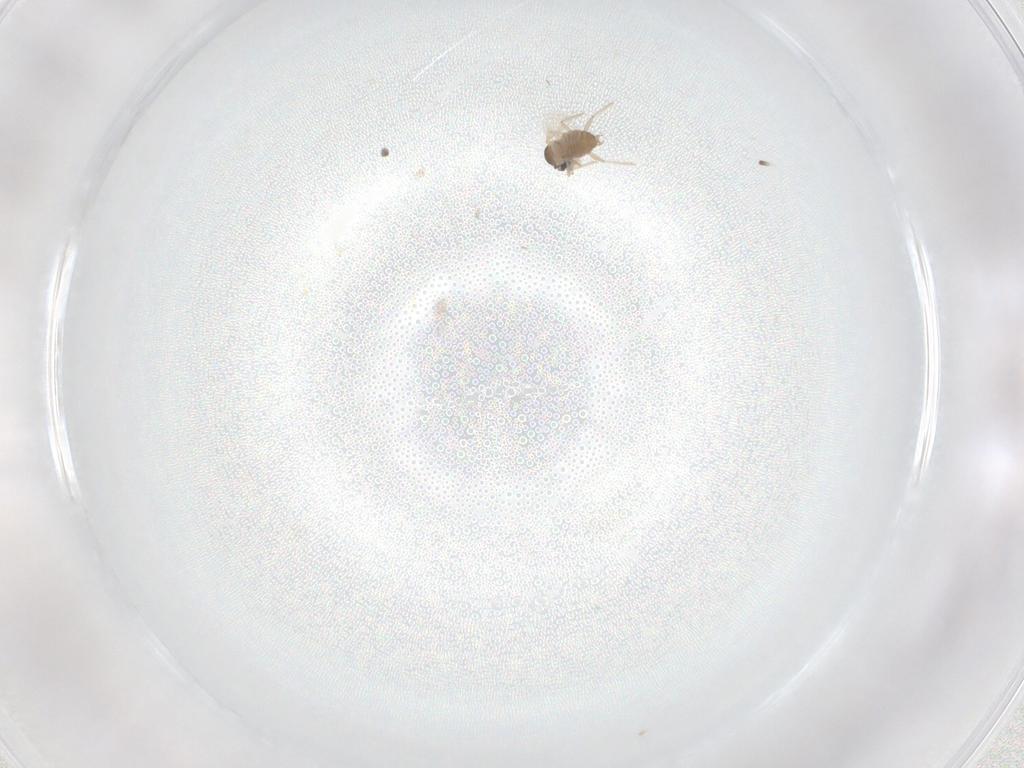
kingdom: Animalia
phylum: Arthropoda
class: Insecta
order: Diptera
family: Cecidomyiidae
